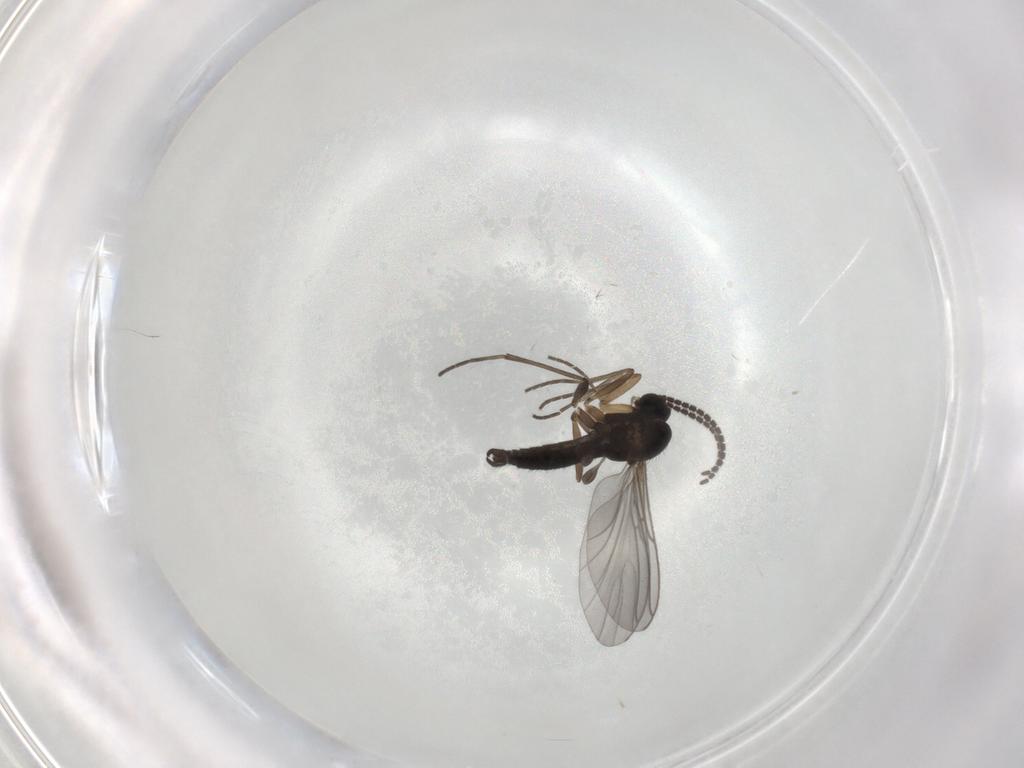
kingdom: Animalia
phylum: Arthropoda
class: Insecta
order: Diptera
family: Sciaridae
